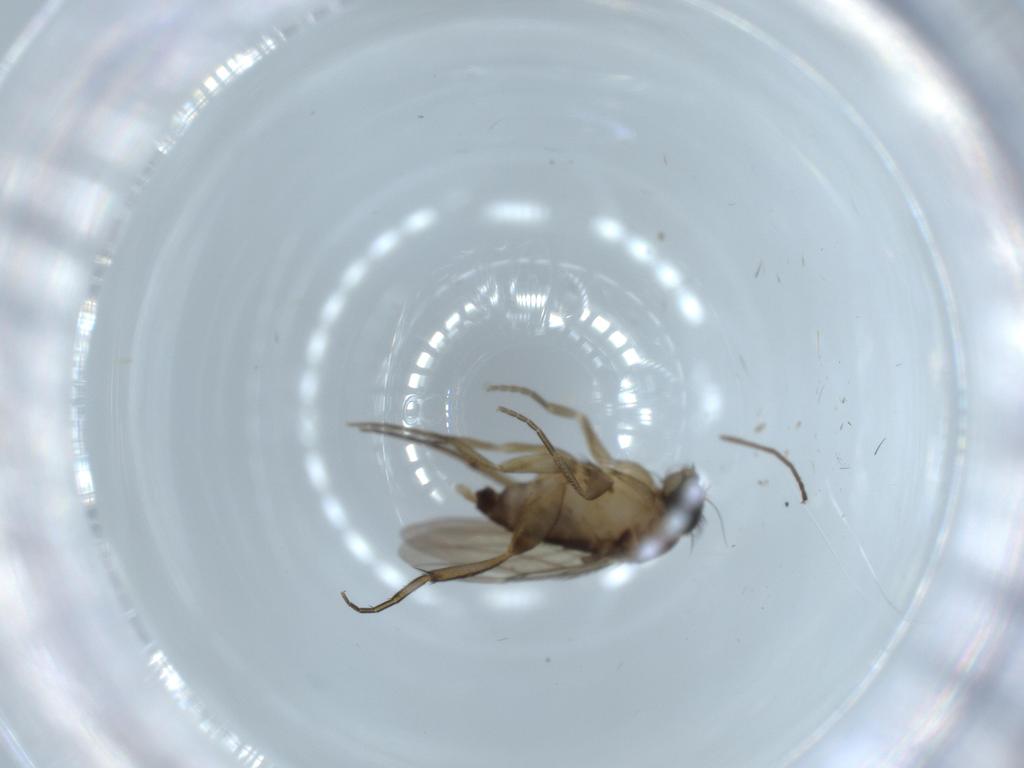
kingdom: Animalia
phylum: Arthropoda
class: Insecta
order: Diptera
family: Phoridae
